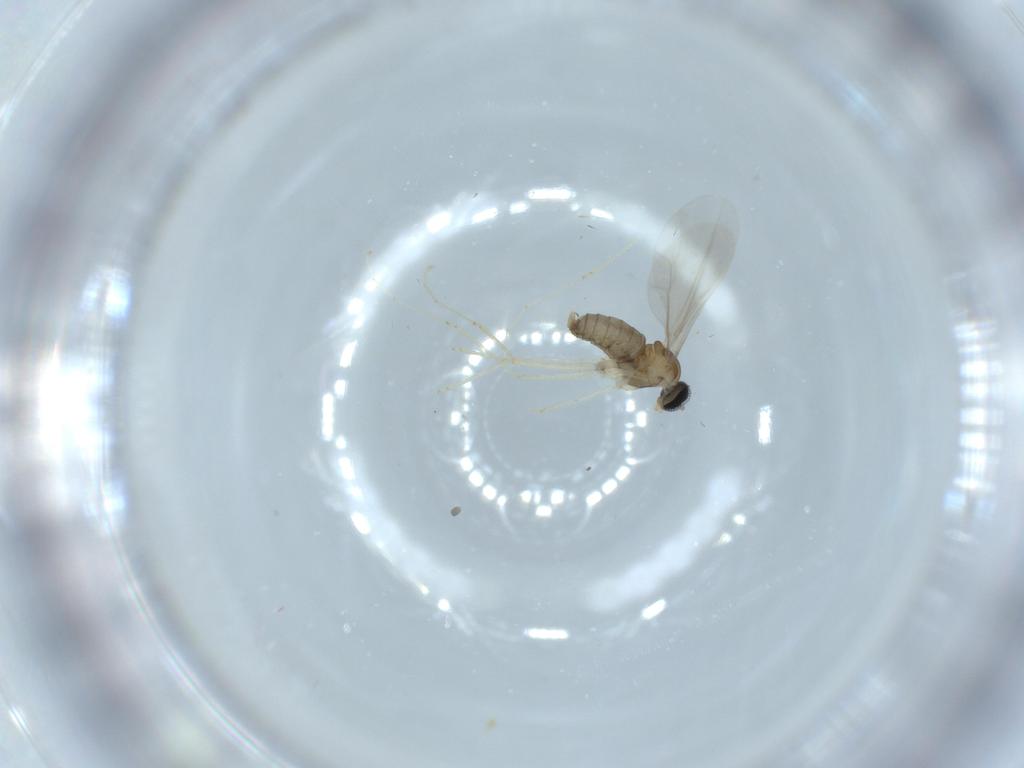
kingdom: Animalia
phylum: Arthropoda
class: Insecta
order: Diptera
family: Cecidomyiidae
